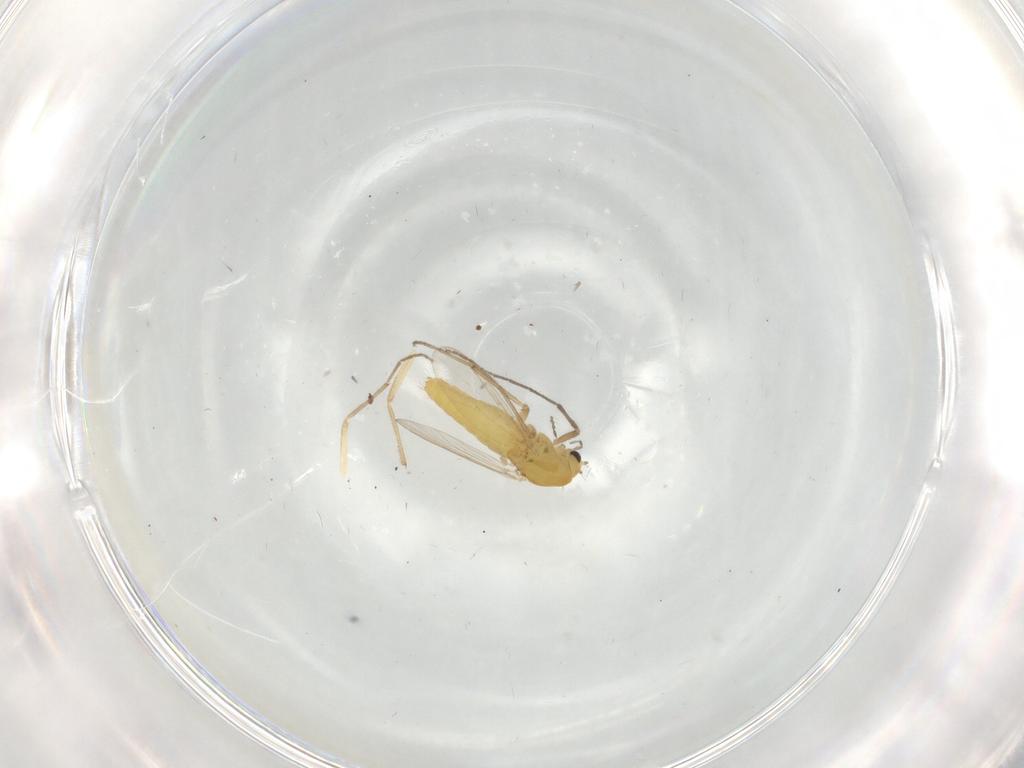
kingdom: Animalia
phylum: Arthropoda
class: Insecta
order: Diptera
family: Chironomidae
